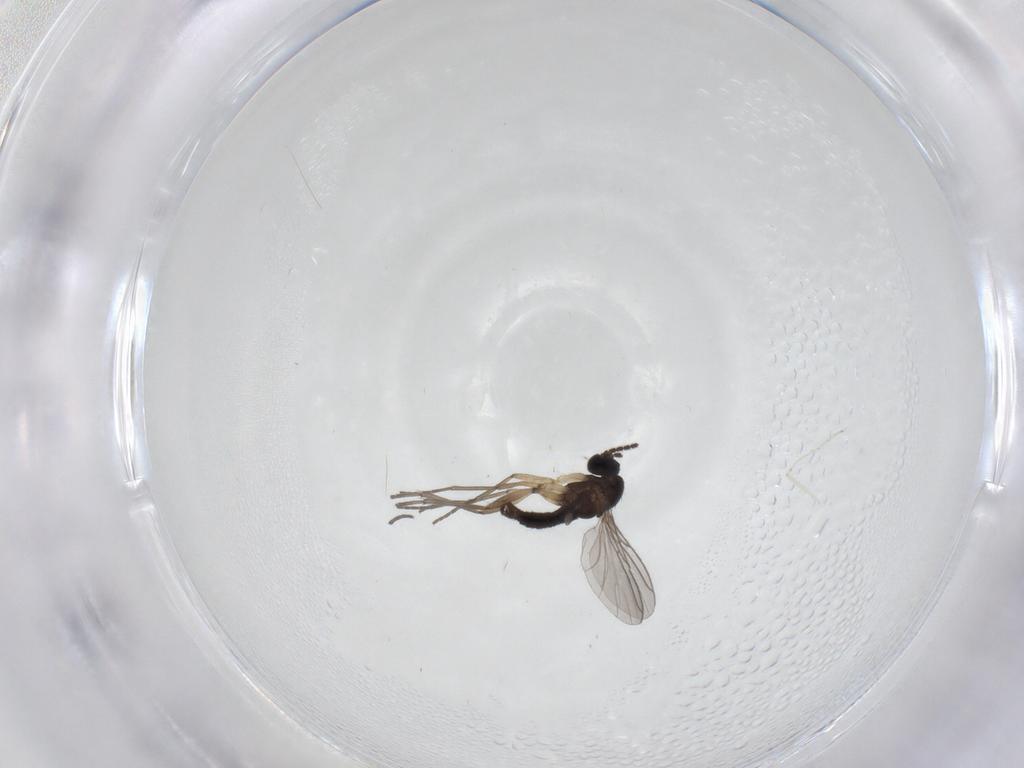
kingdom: Animalia
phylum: Arthropoda
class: Insecta
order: Diptera
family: Sciaridae
